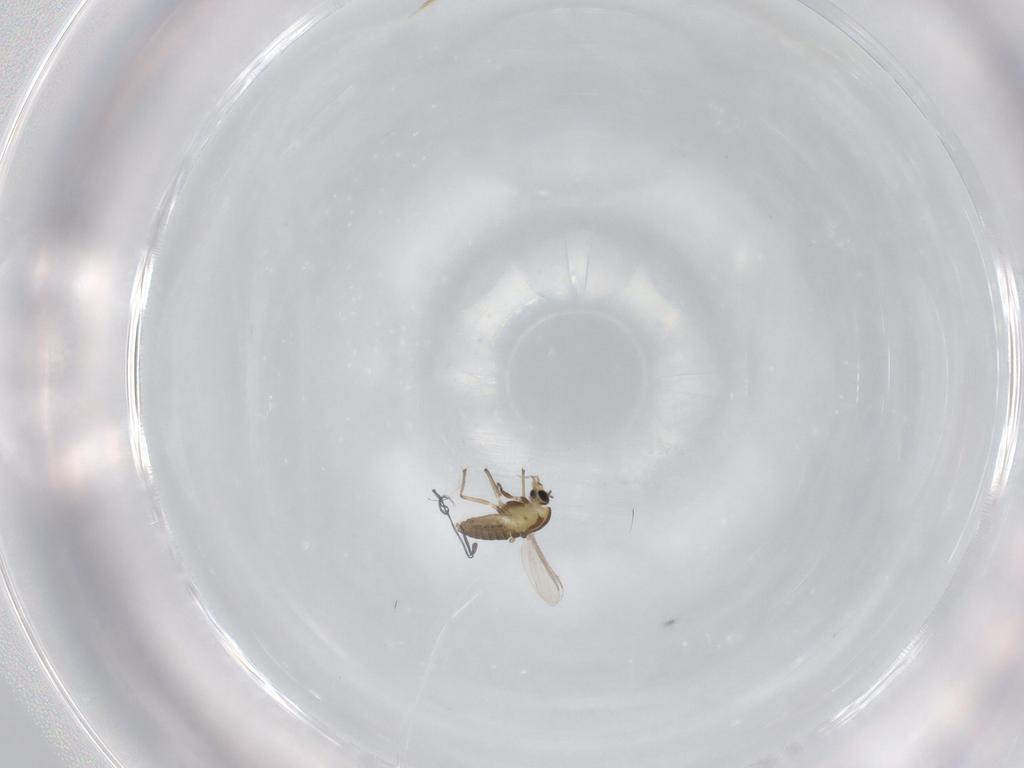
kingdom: Animalia
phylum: Arthropoda
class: Insecta
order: Diptera
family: Chironomidae
